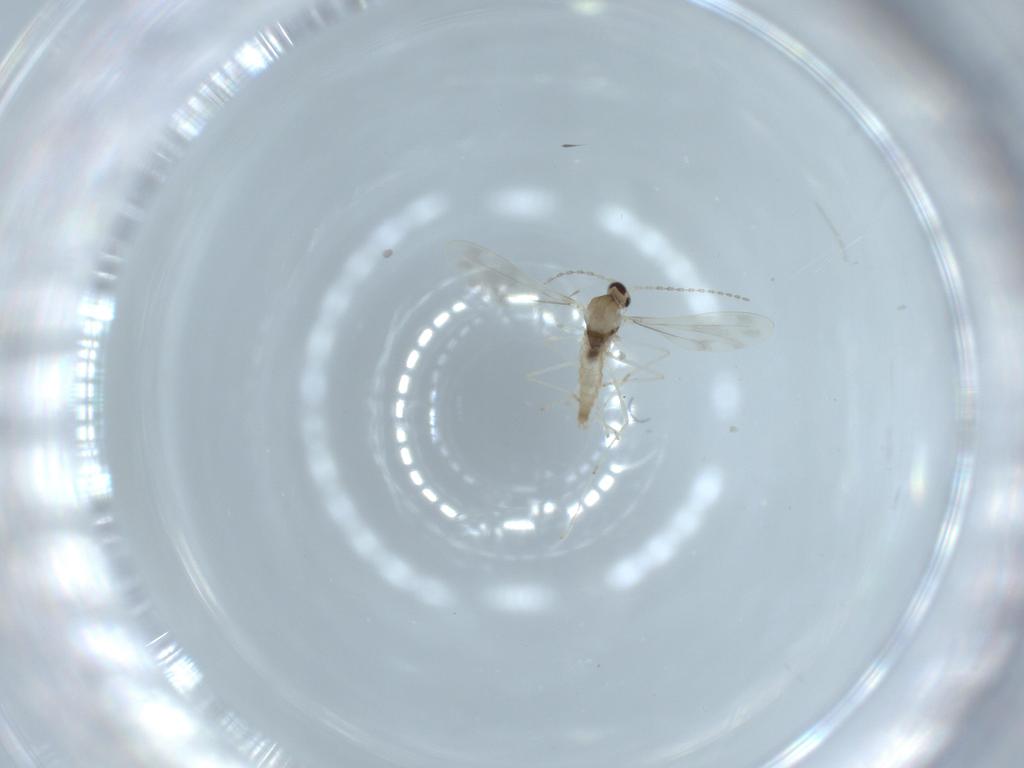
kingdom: Animalia
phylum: Arthropoda
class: Insecta
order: Diptera
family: Cecidomyiidae
